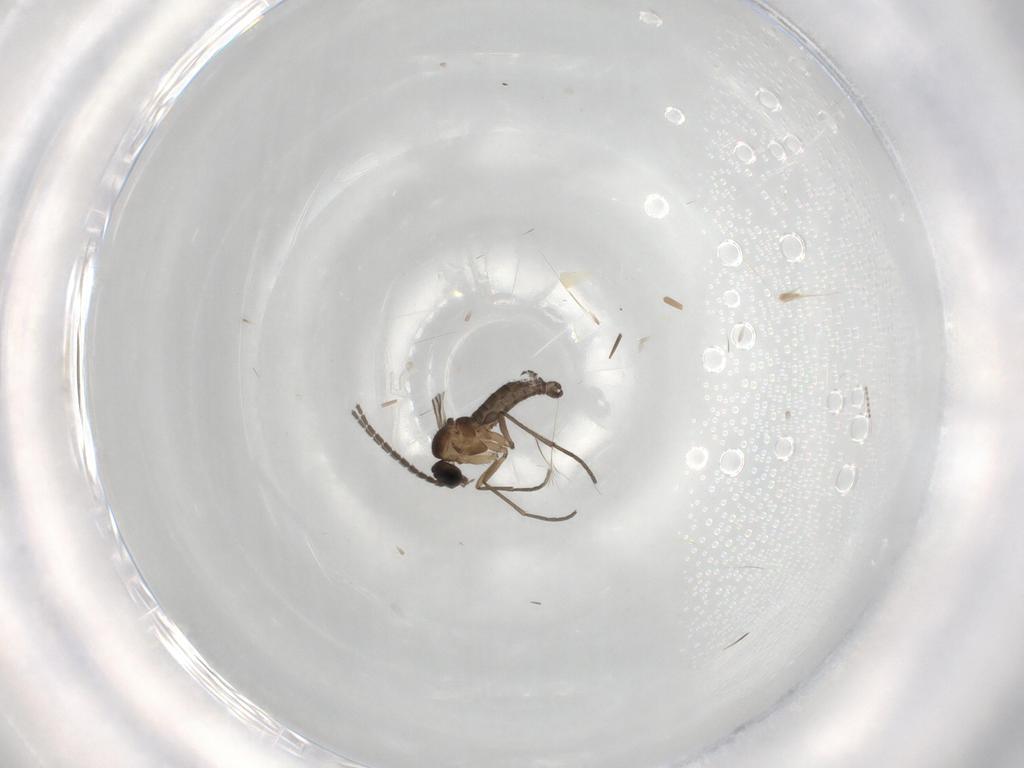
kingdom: Animalia
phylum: Arthropoda
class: Insecta
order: Diptera
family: Sciaridae
